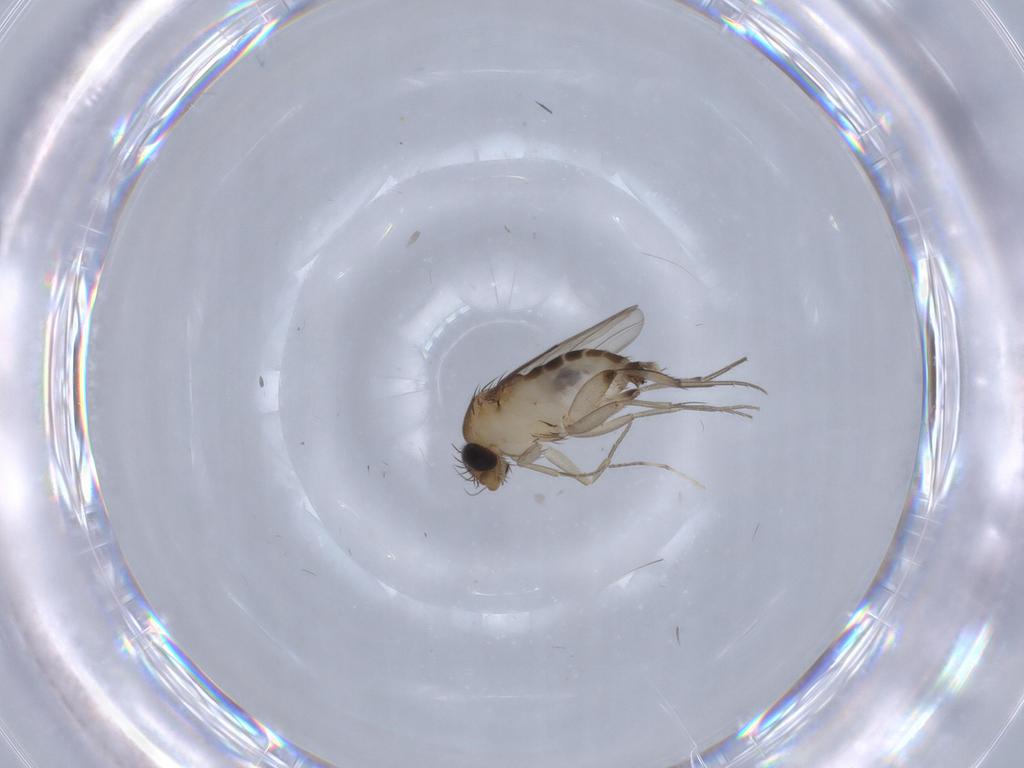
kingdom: Animalia
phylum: Arthropoda
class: Insecta
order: Diptera
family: Phoridae
